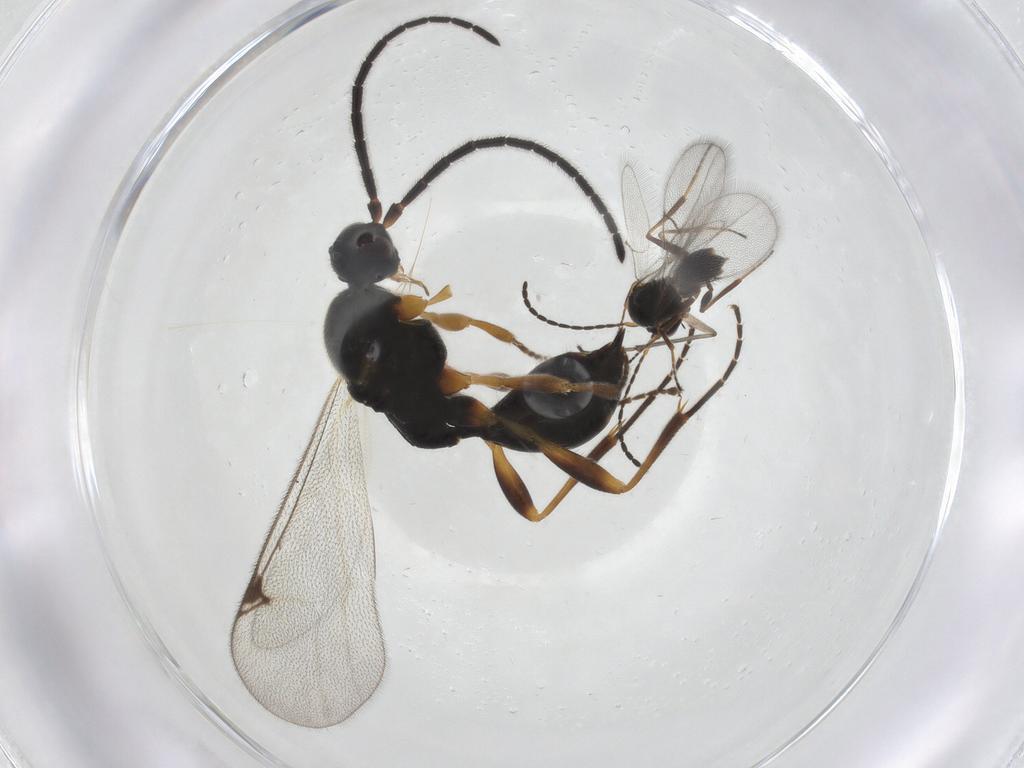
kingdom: Animalia
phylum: Arthropoda
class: Insecta
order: Hymenoptera
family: Proctotrupidae
